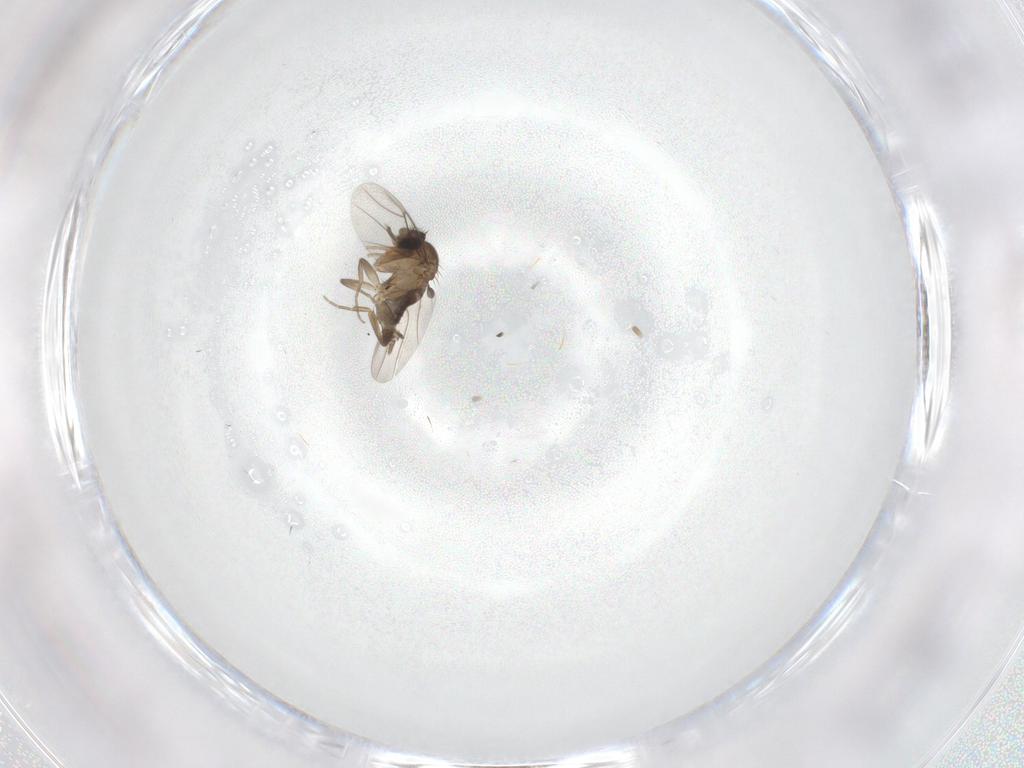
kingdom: Animalia
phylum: Arthropoda
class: Insecta
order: Diptera
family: Phoridae
